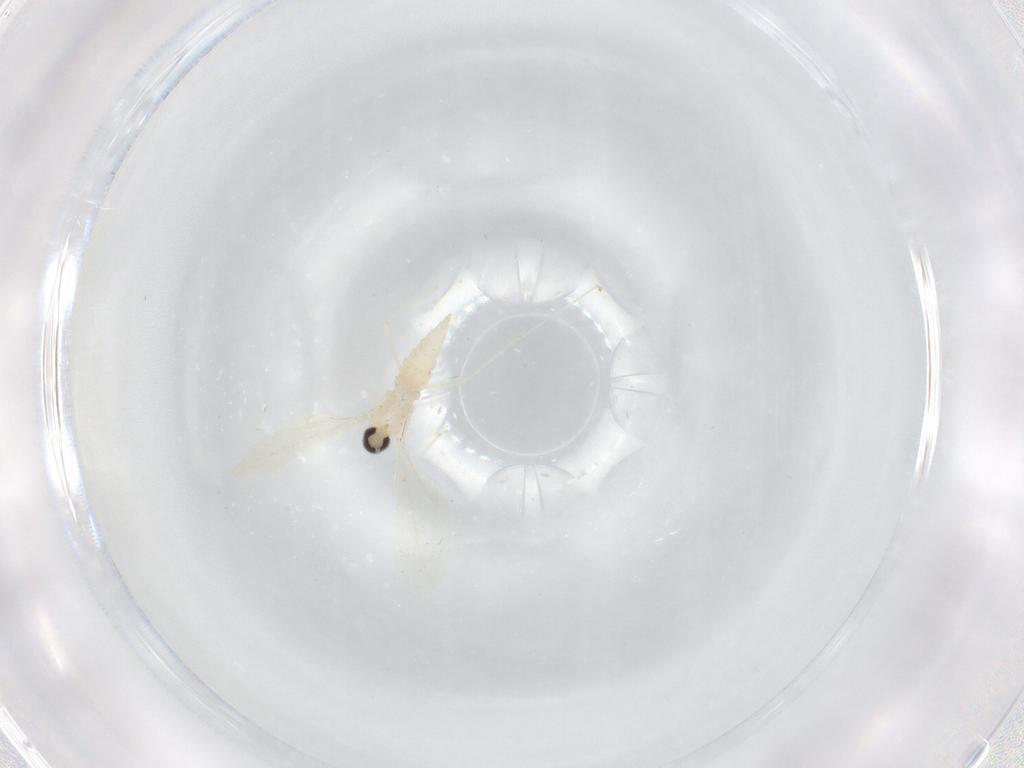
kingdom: Animalia
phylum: Arthropoda
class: Insecta
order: Diptera
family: Cecidomyiidae
